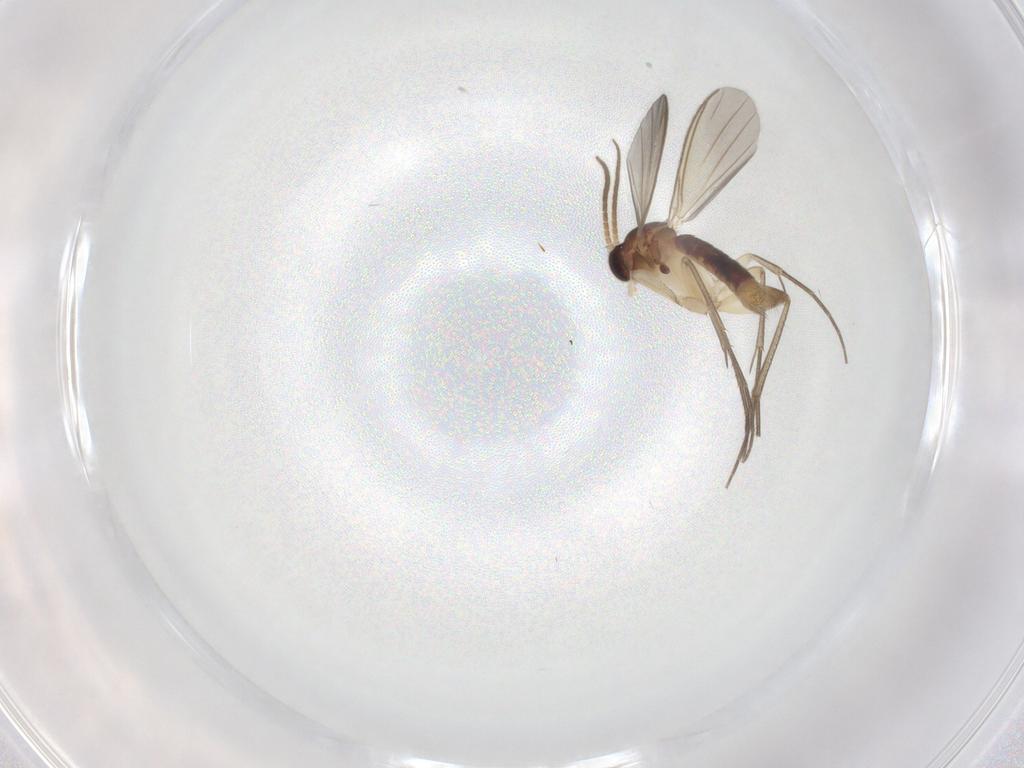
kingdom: Animalia
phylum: Arthropoda
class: Insecta
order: Diptera
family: Mycetophilidae
